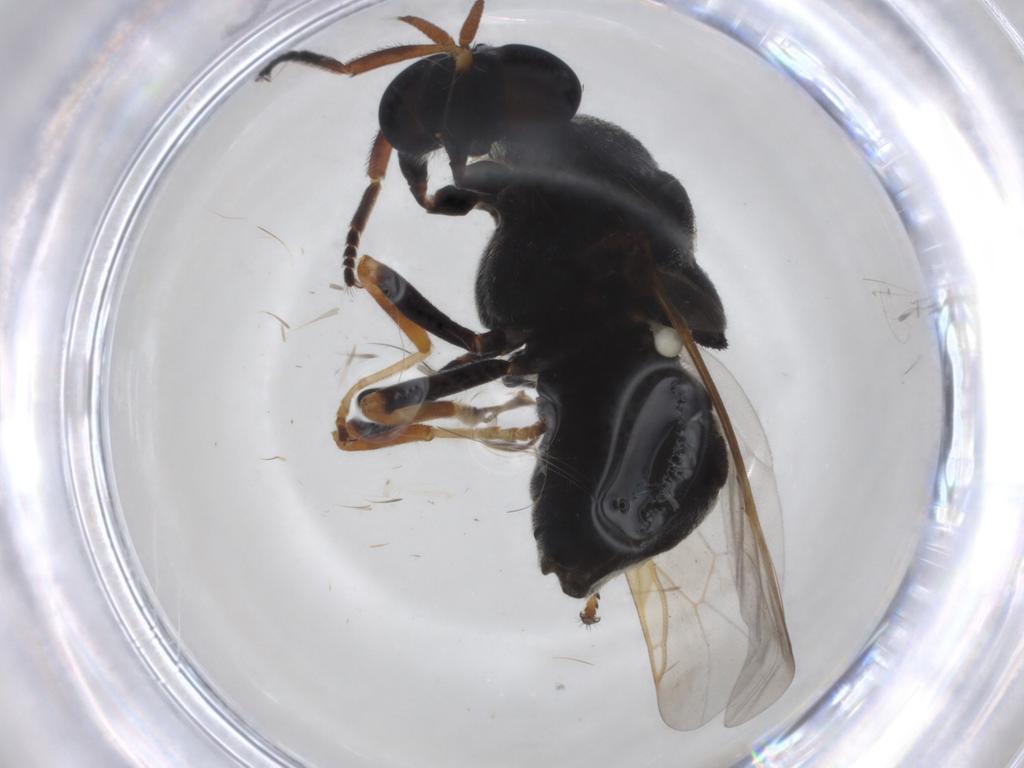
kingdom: Animalia
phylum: Arthropoda
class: Insecta
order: Diptera
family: Phoridae
